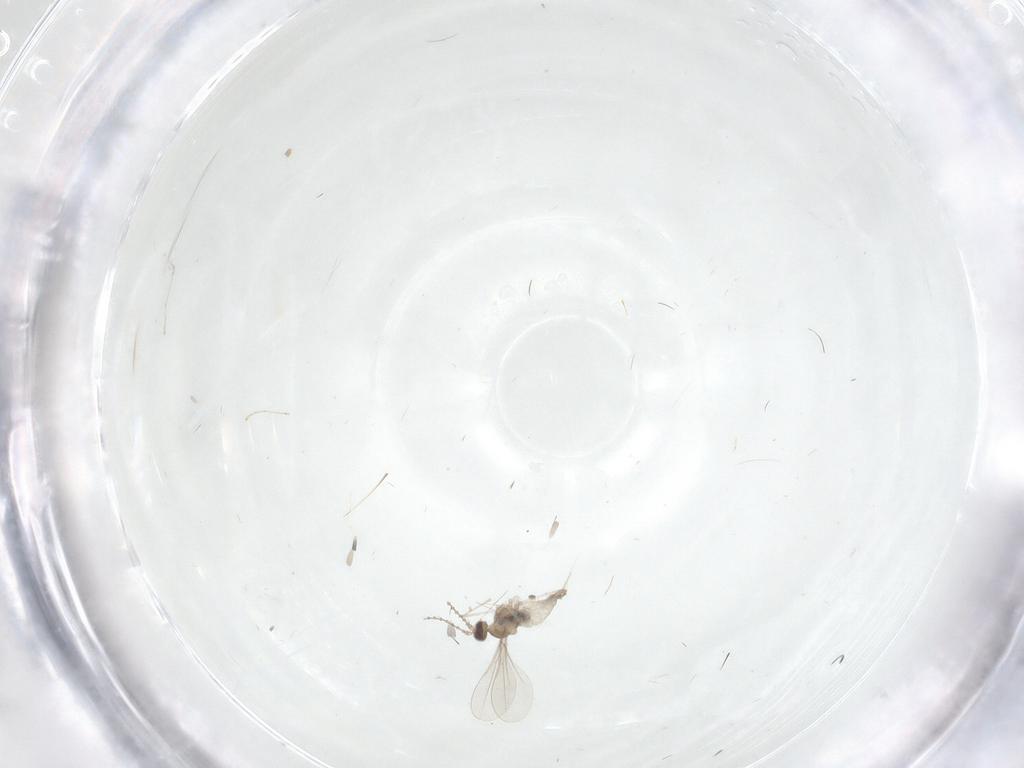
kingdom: Animalia
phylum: Arthropoda
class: Insecta
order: Diptera
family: Cecidomyiidae
